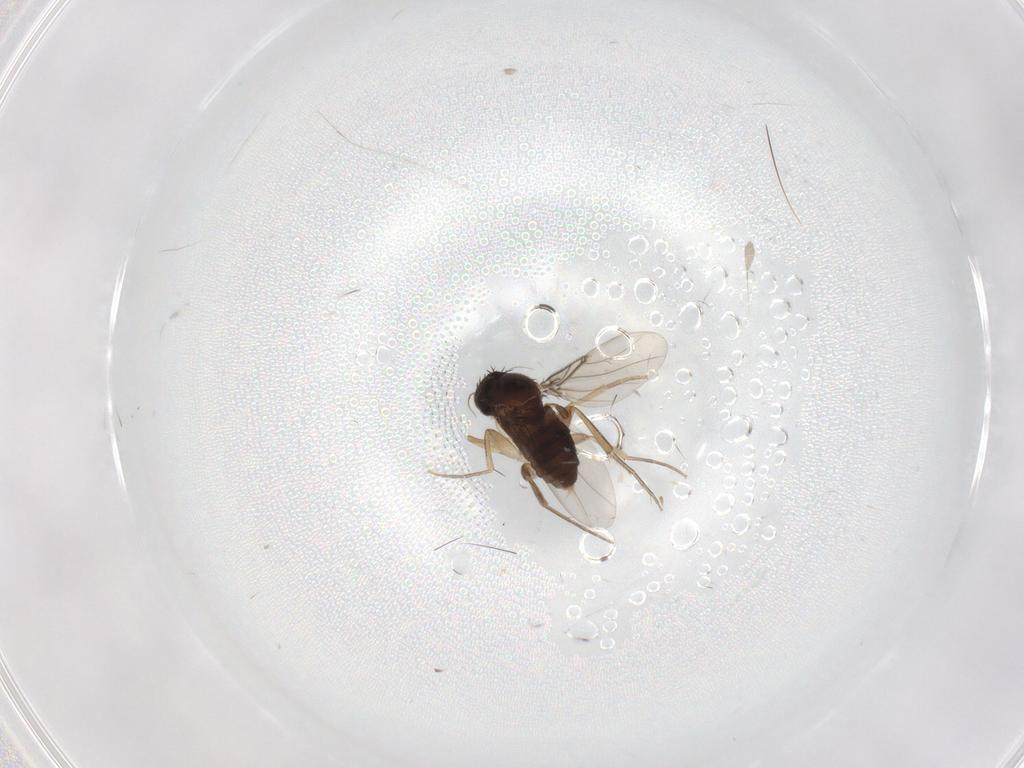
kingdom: Animalia
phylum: Arthropoda
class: Insecta
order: Diptera
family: Chironomidae
